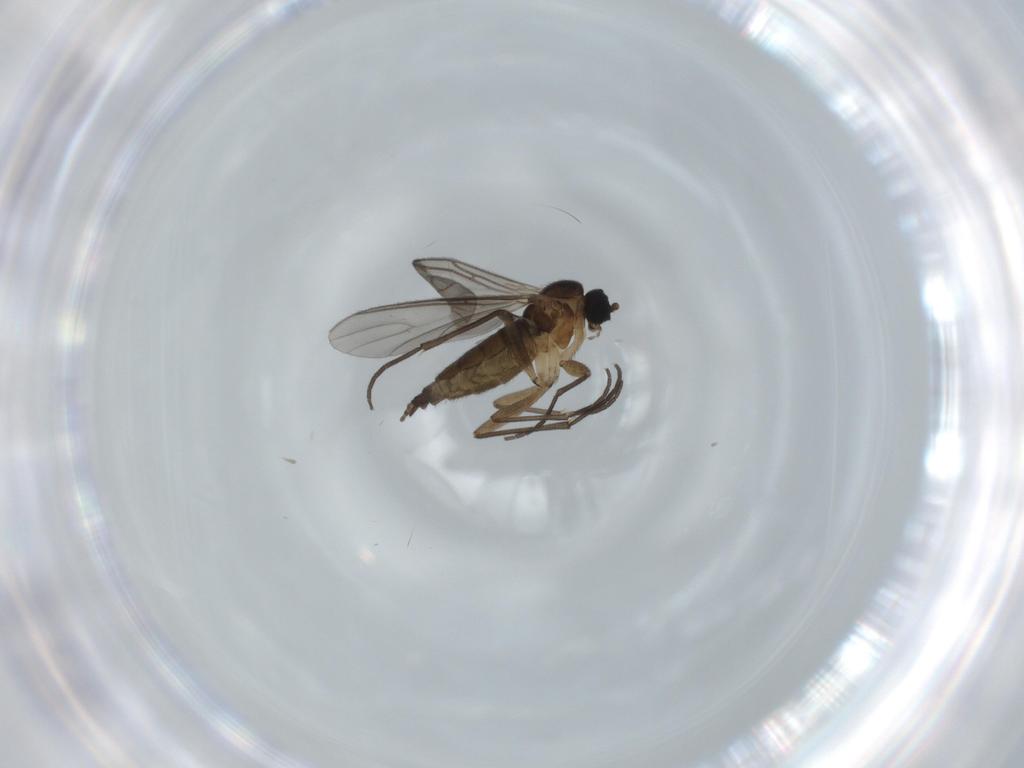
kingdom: Animalia
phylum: Arthropoda
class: Insecta
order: Diptera
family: Sciaridae
